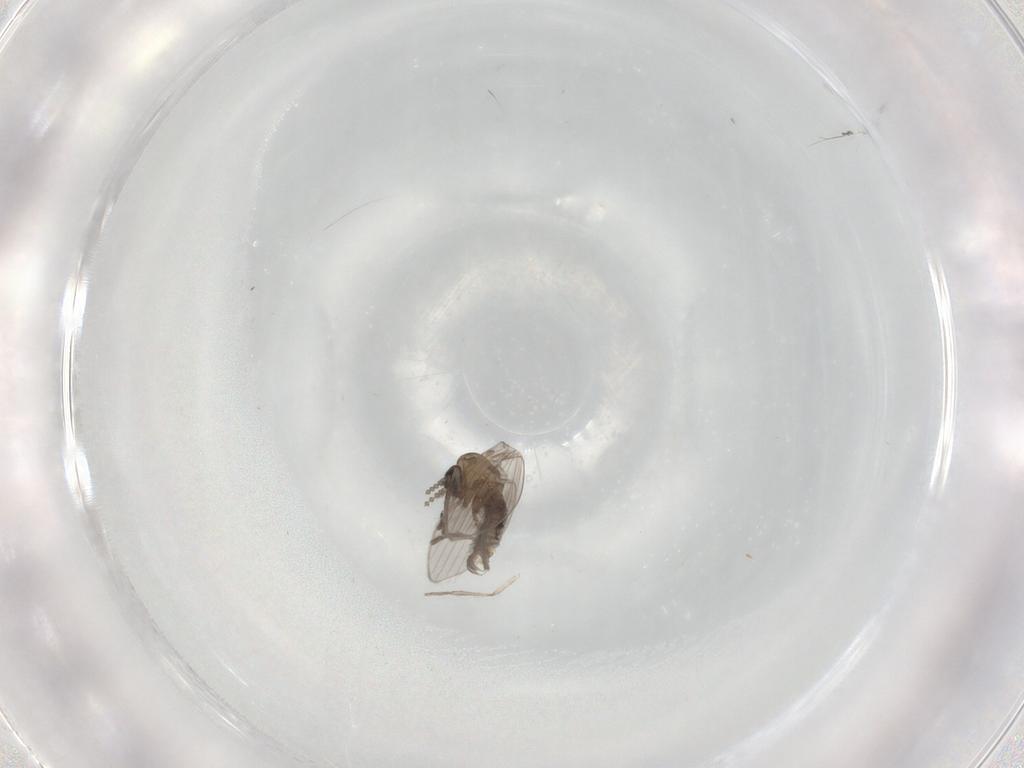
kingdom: Animalia
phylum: Arthropoda
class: Insecta
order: Diptera
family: Psychodidae
